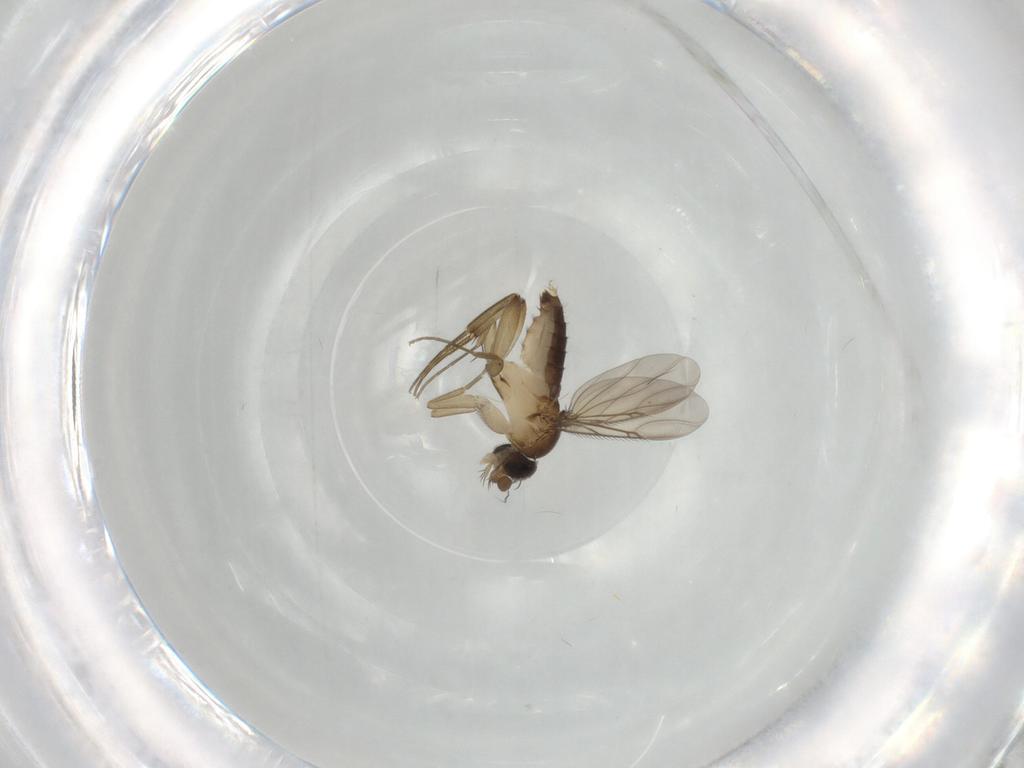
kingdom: Animalia
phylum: Arthropoda
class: Insecta
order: Diptera
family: Phoridae
